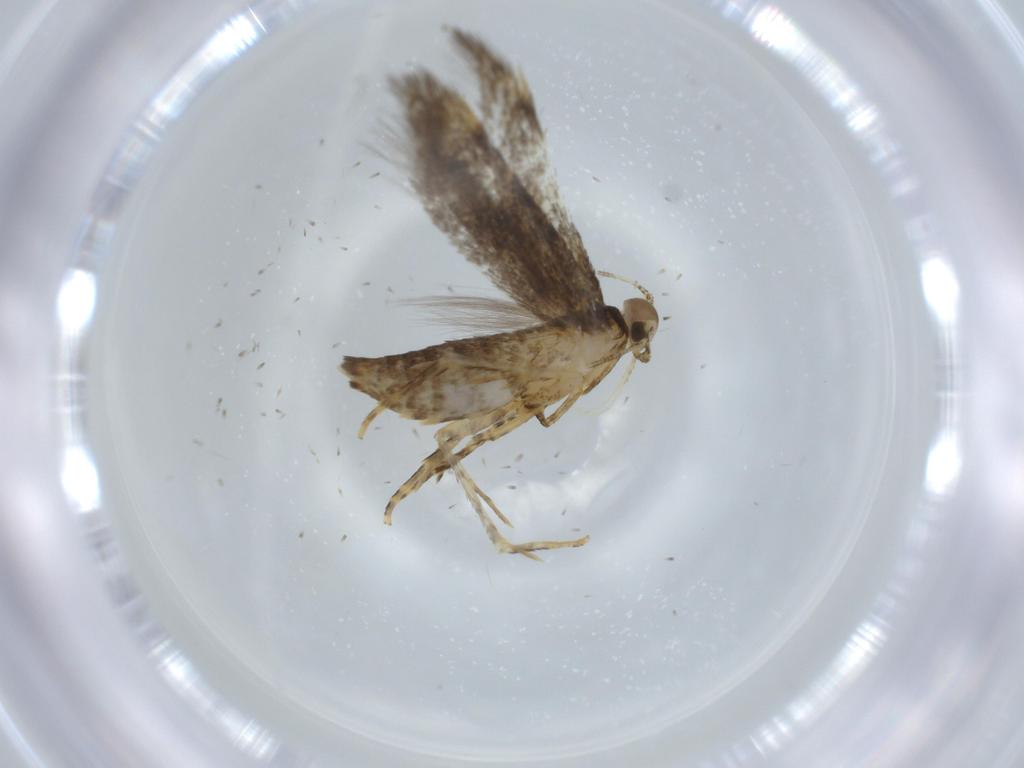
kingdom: Animalia
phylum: Arthropoda
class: Insecta
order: Lepidoptera
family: Oecophoridae
